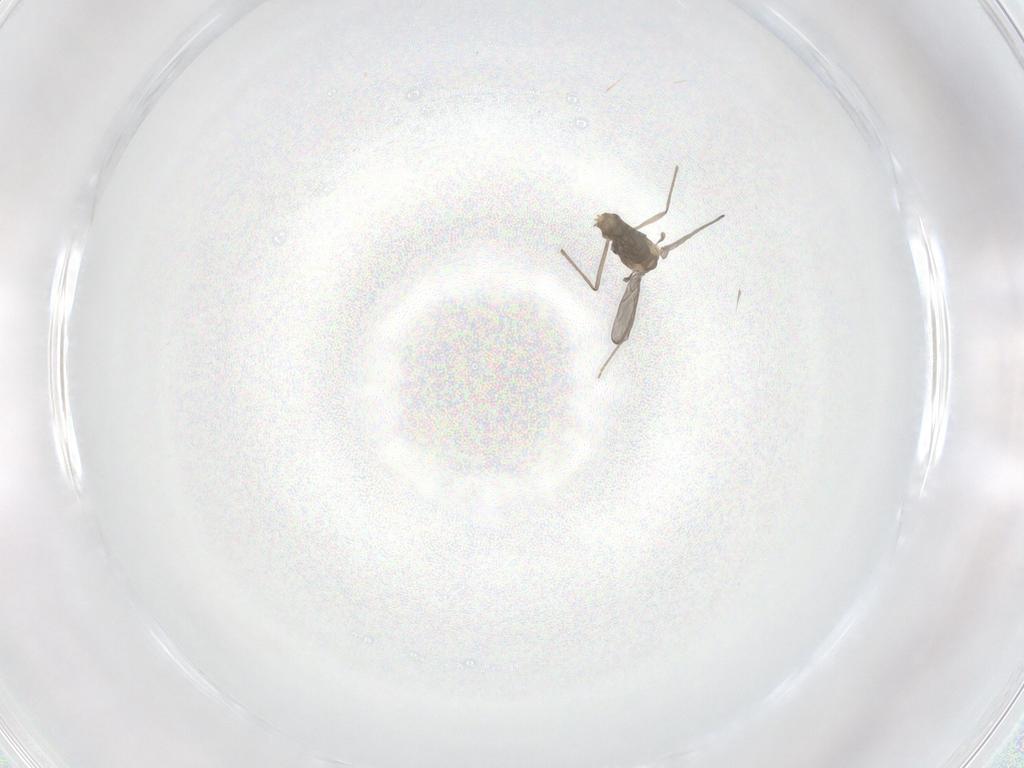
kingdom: Animalia
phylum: Arthropoda
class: Insecta
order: Diptera
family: Chironomidae
